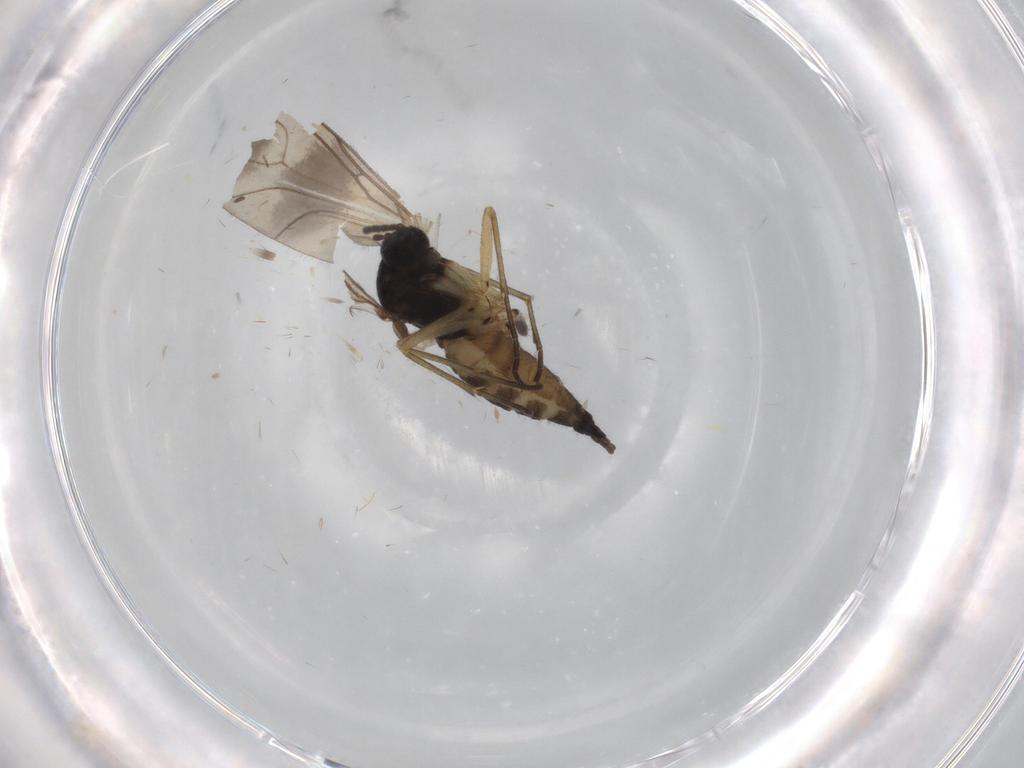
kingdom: Animalia
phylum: Arthropoda
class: Insecta
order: Diptera
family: Sciaridae
